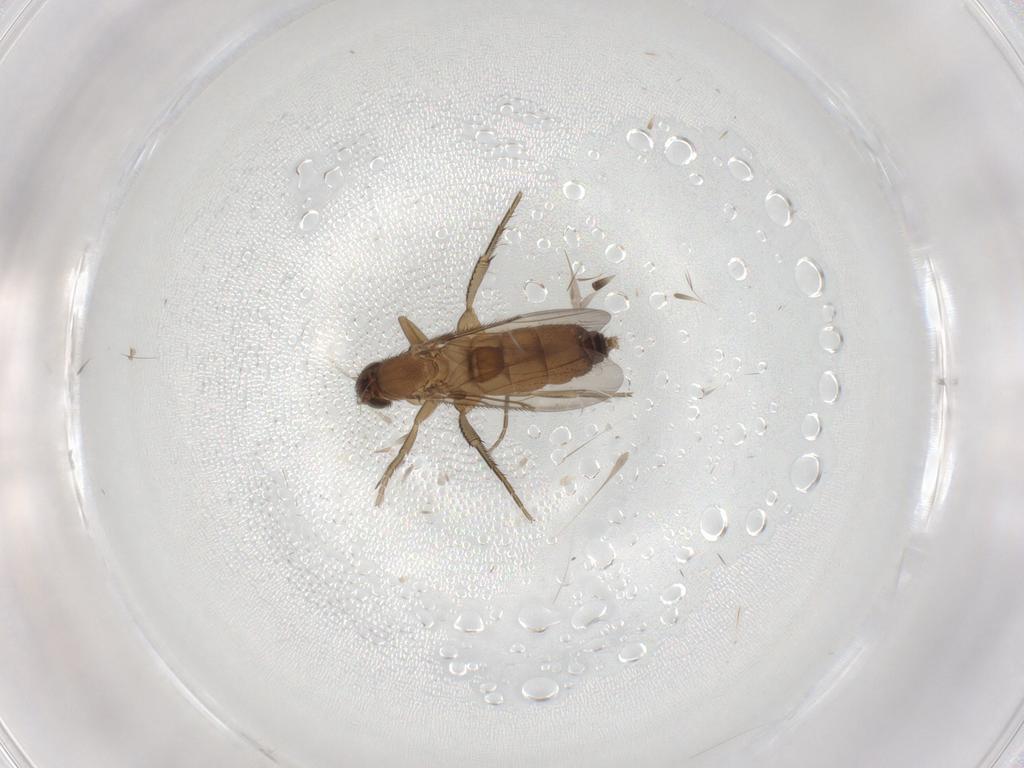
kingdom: Animalia
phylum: Arthropoda
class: Insecta
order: Diptera
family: Phoridae
